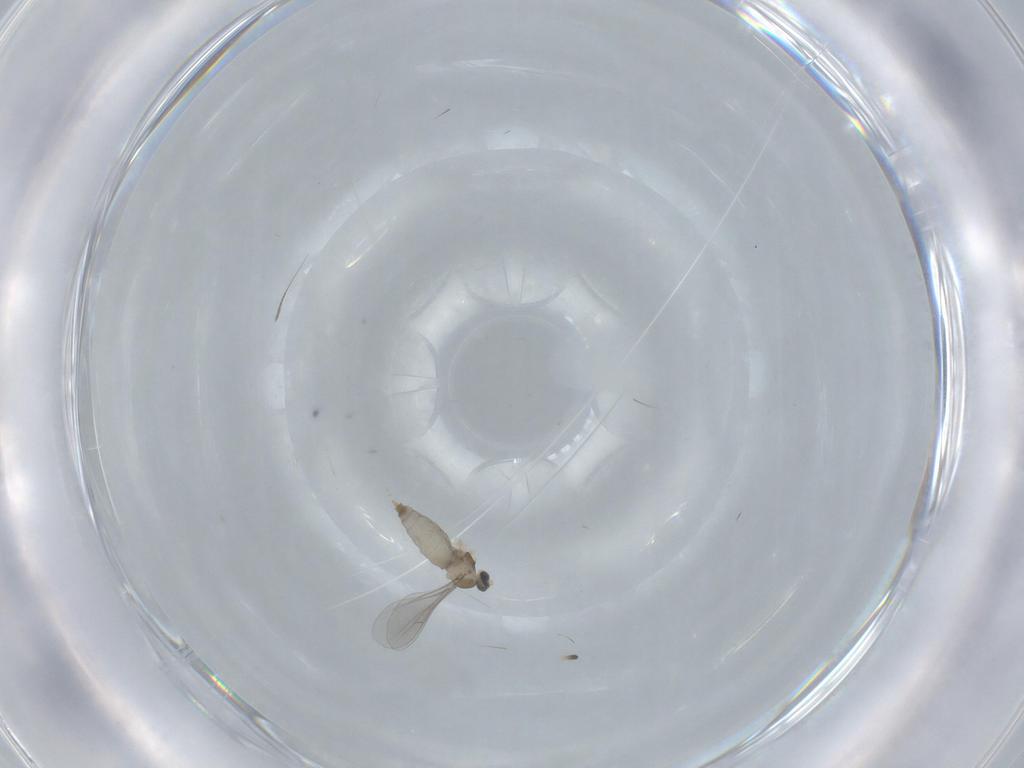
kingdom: Animalia
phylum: Arthropoda
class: Insecta
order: Diptera
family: Cecidomyiidae
